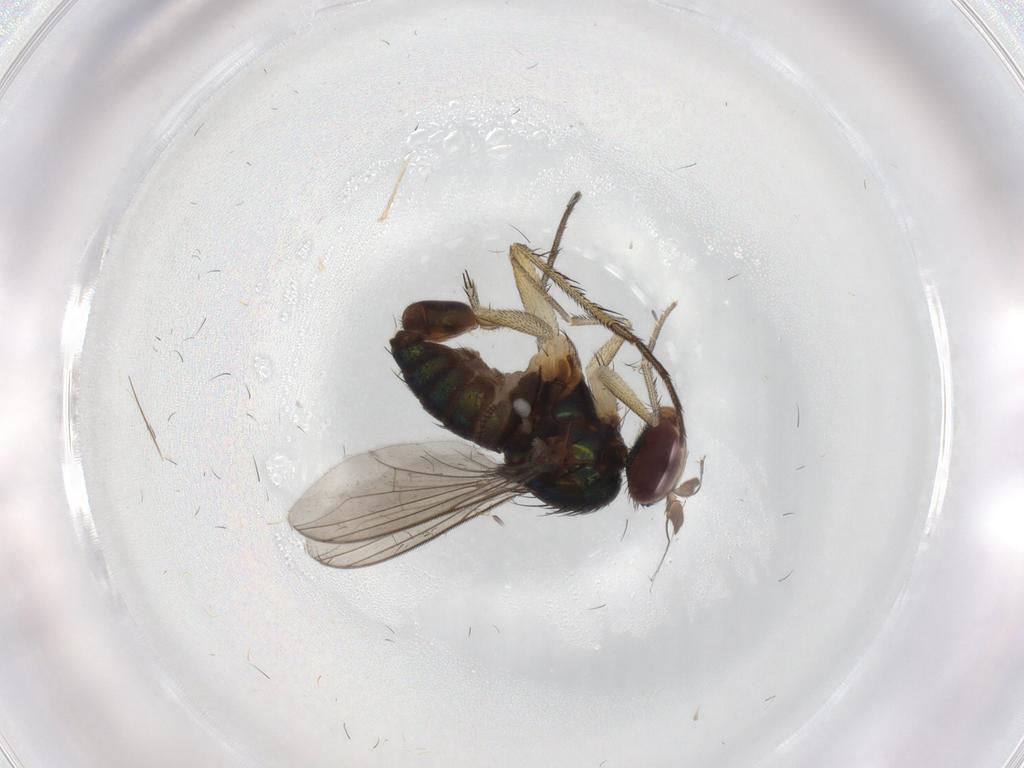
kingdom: Animalia
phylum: Arthropoda
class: Insecta
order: Diptera
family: Dolichopodidae
